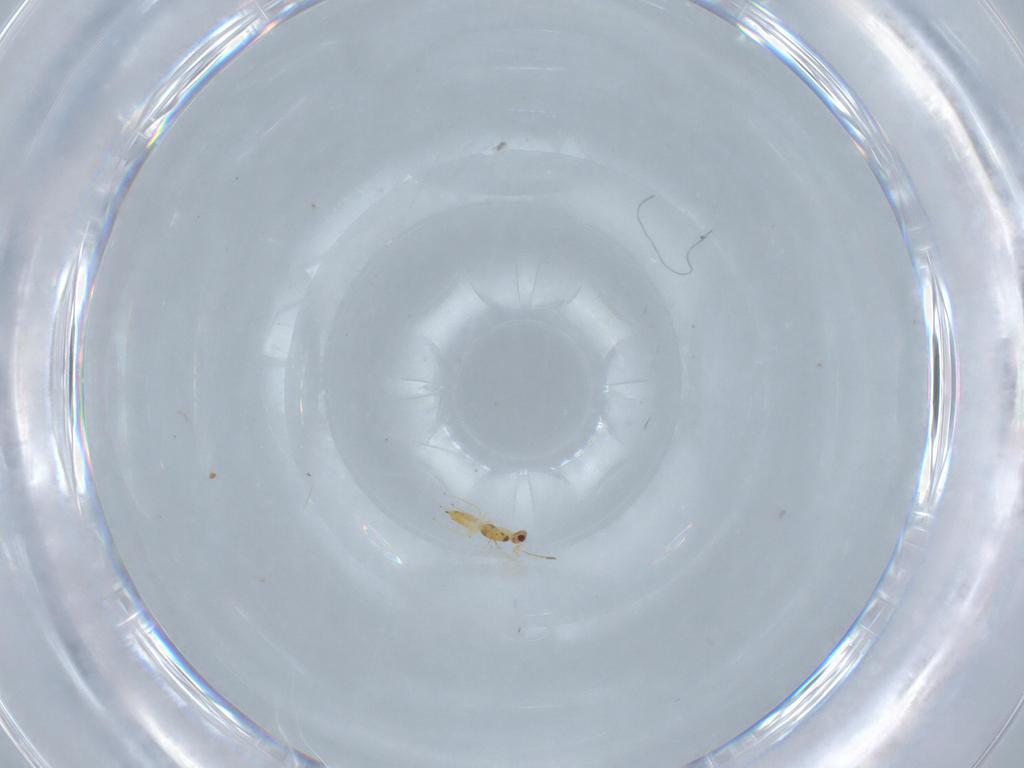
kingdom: Animalia
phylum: Arthropoda
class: Insecta
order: Hymenoptera
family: Mymaridae
